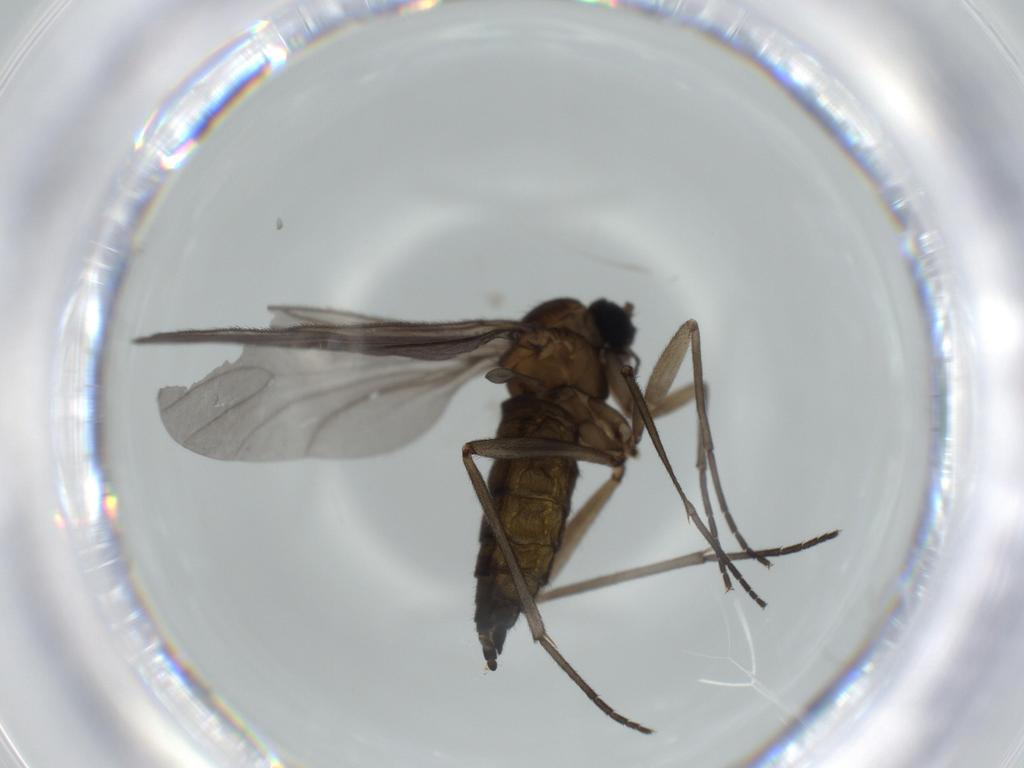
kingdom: Animalia
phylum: Arthropoda
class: Insecta
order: Diptera
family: Sciaridae
